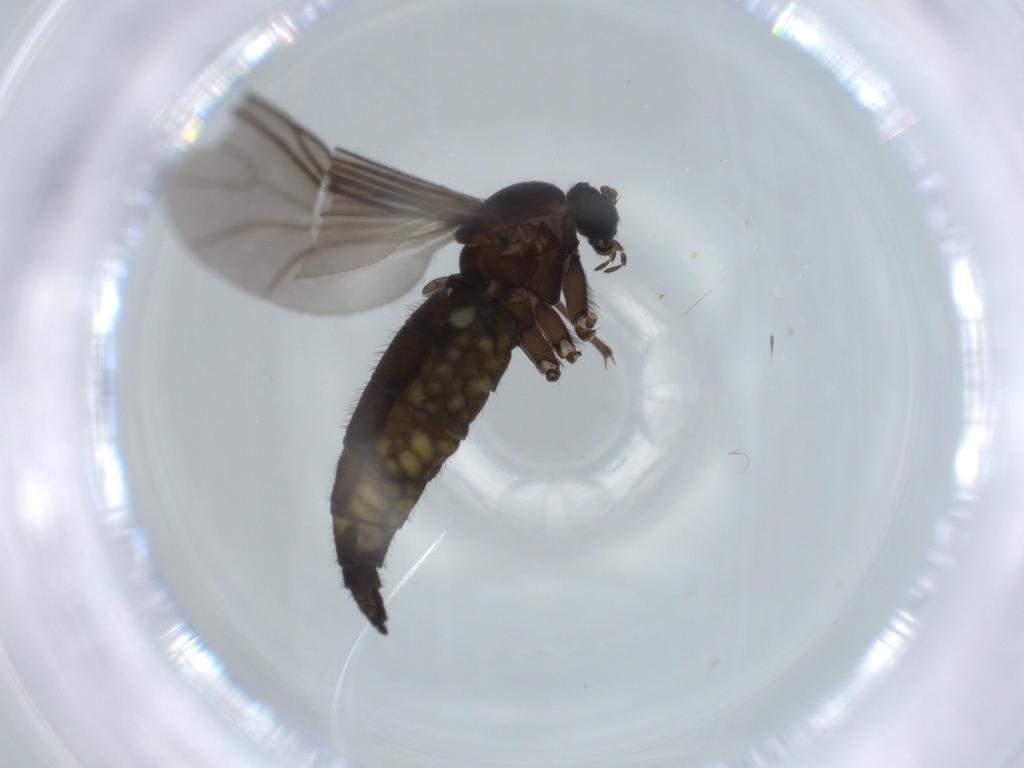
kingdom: Animalia
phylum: Arthropoda
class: Insecta
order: Diptera
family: Sciaridae
